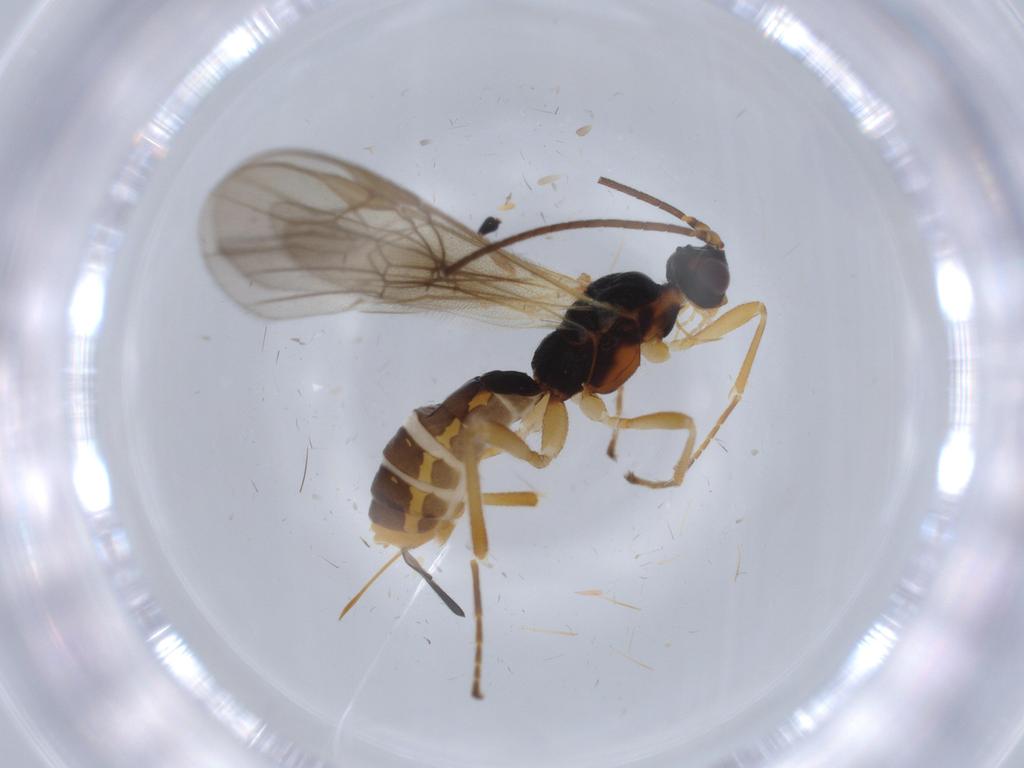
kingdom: Animalia
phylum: Arthropoda
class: Insecta
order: Hymenoptera
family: Braconidae
